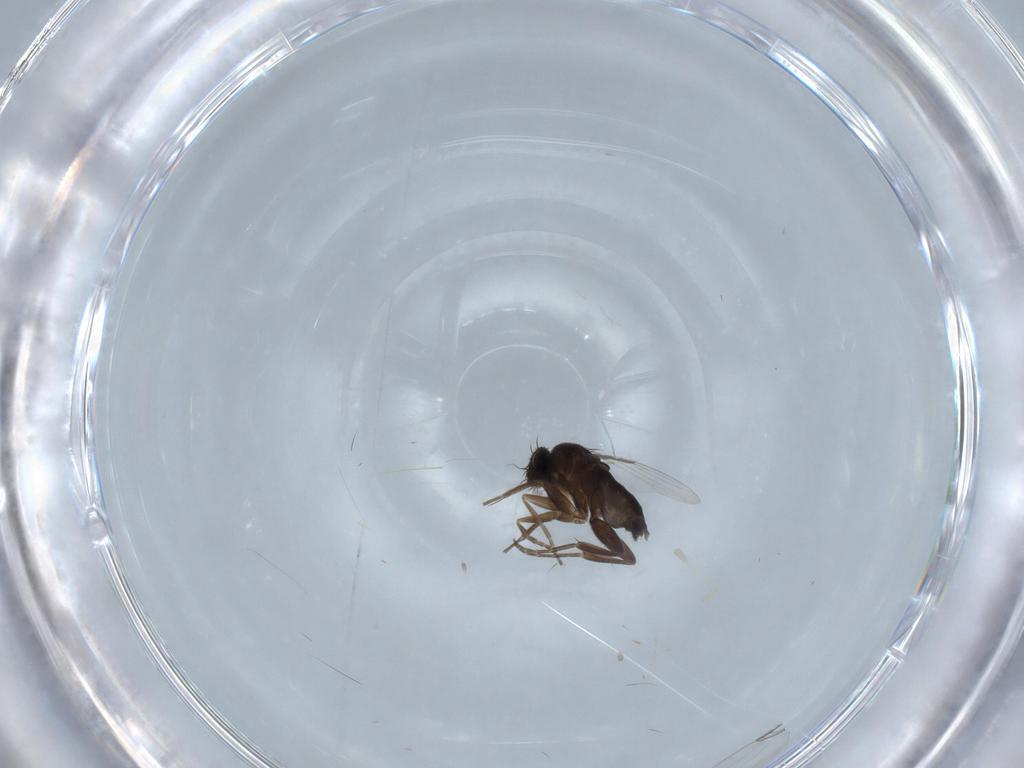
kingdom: Animalia
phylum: Arthropoda
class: Insecta
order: Diptera
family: Phoridae
